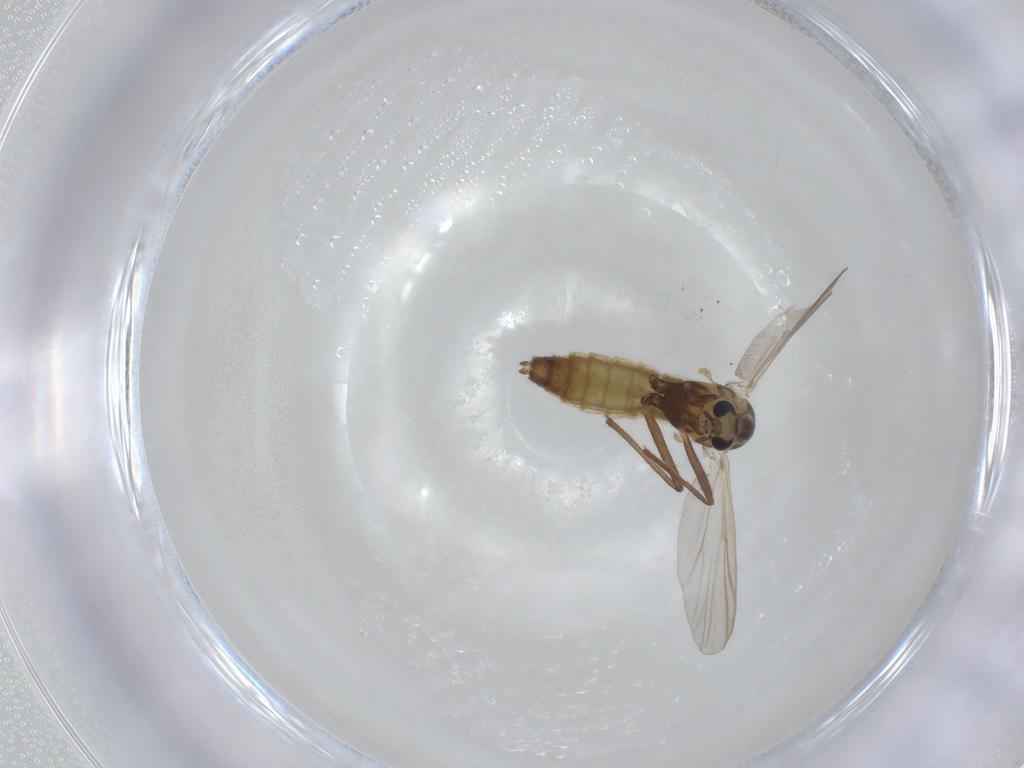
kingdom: Animalia
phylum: Arthropoda
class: Insecta
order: Diptera
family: Chironomidae
